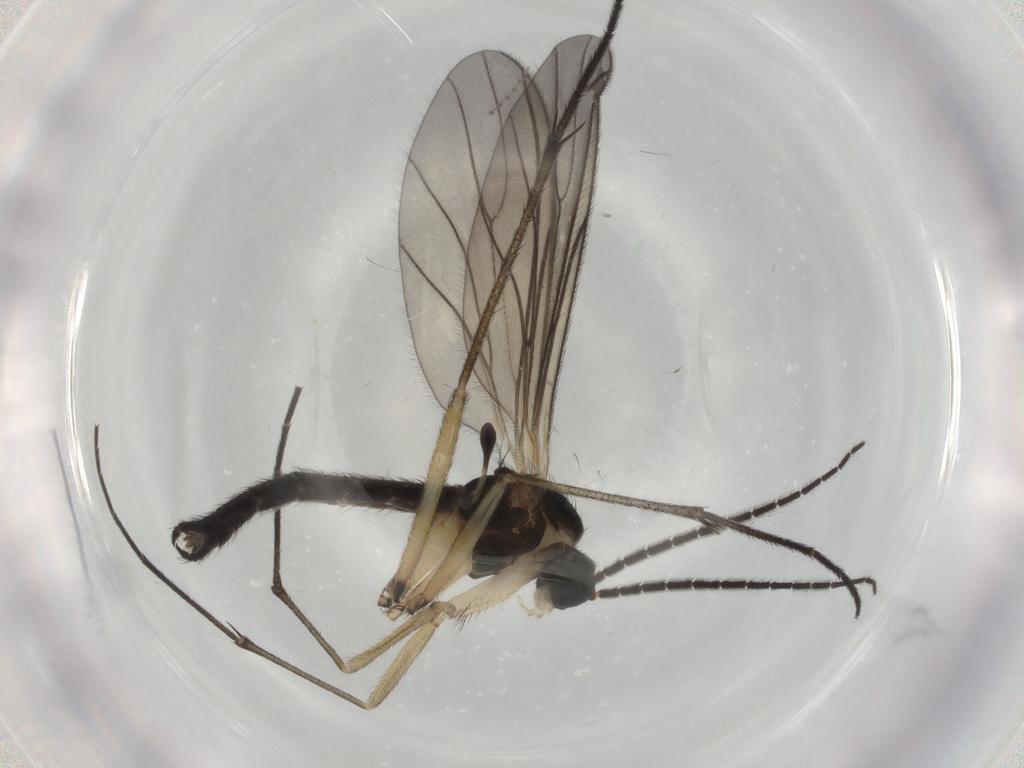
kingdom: Animalia
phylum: Arthropoda
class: Insecta
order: Diptera
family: Sciaridae
